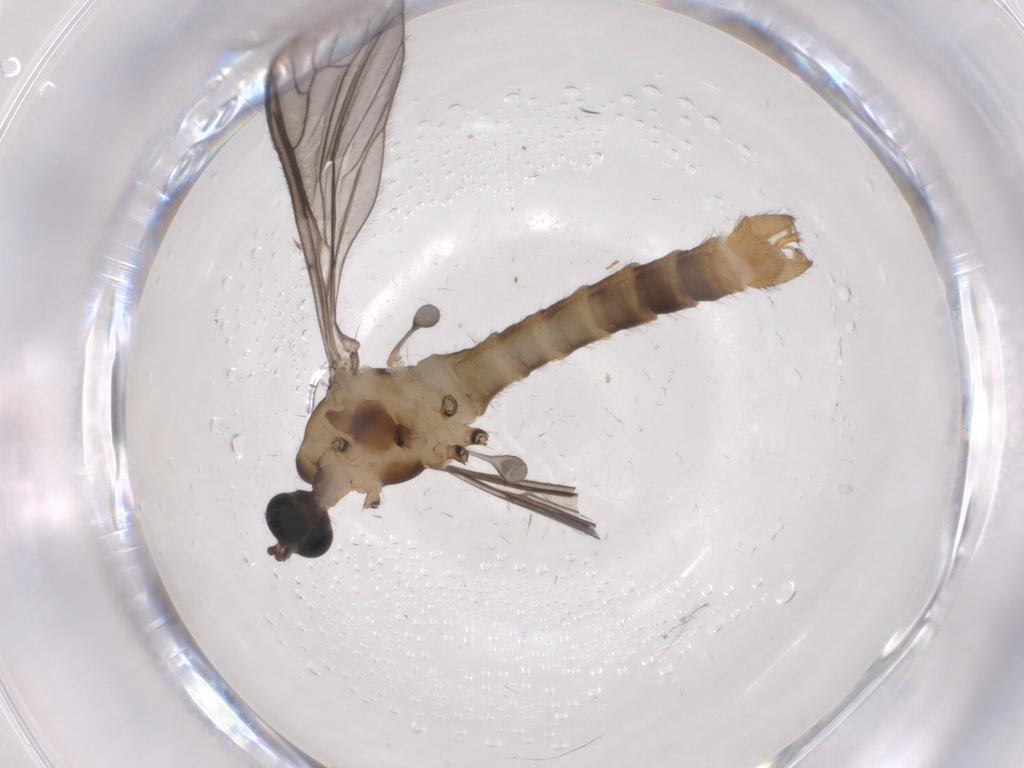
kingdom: Animalia
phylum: Arthropoda
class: Insecta
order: Diptera
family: Limoniidae
